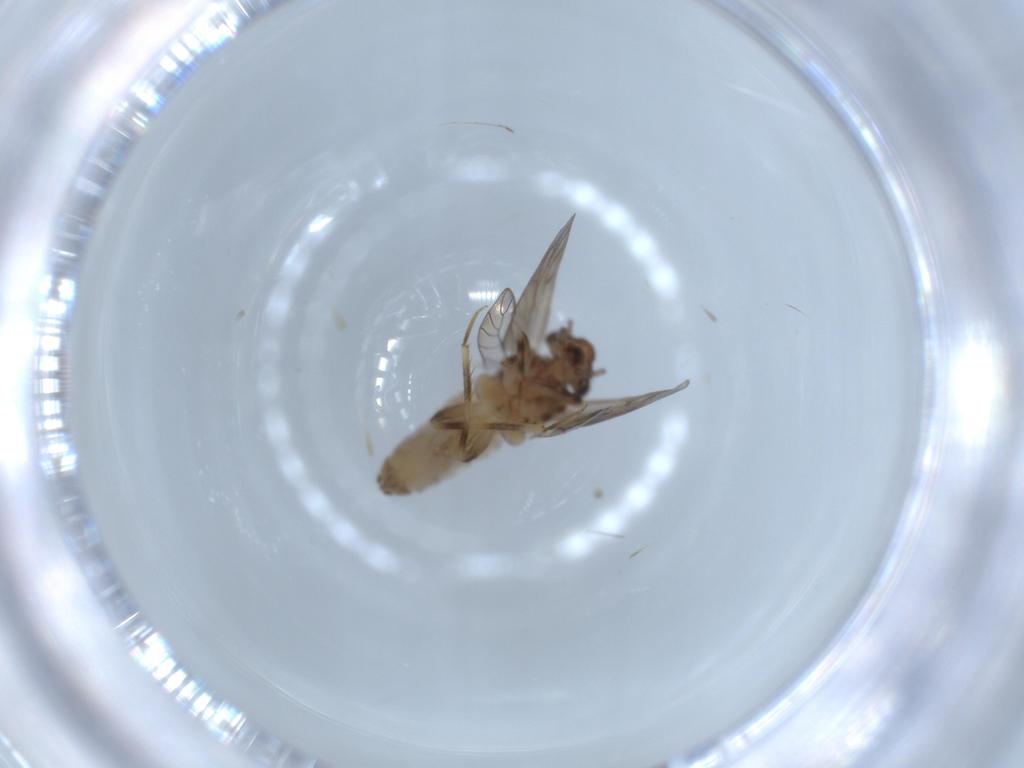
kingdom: Animalia
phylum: Arthropoda
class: Insecta
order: Psocodea
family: Lepidopsocidae
